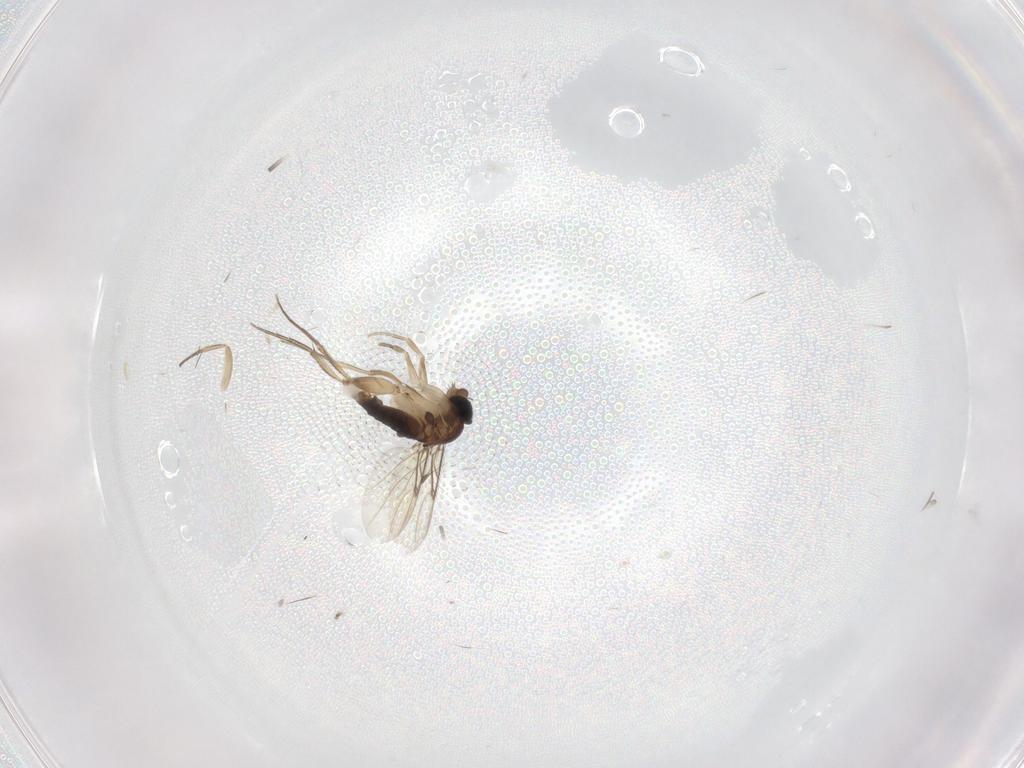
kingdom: Animalia
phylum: Arthropoda
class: Insecta
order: Diptera
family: Phoridae
